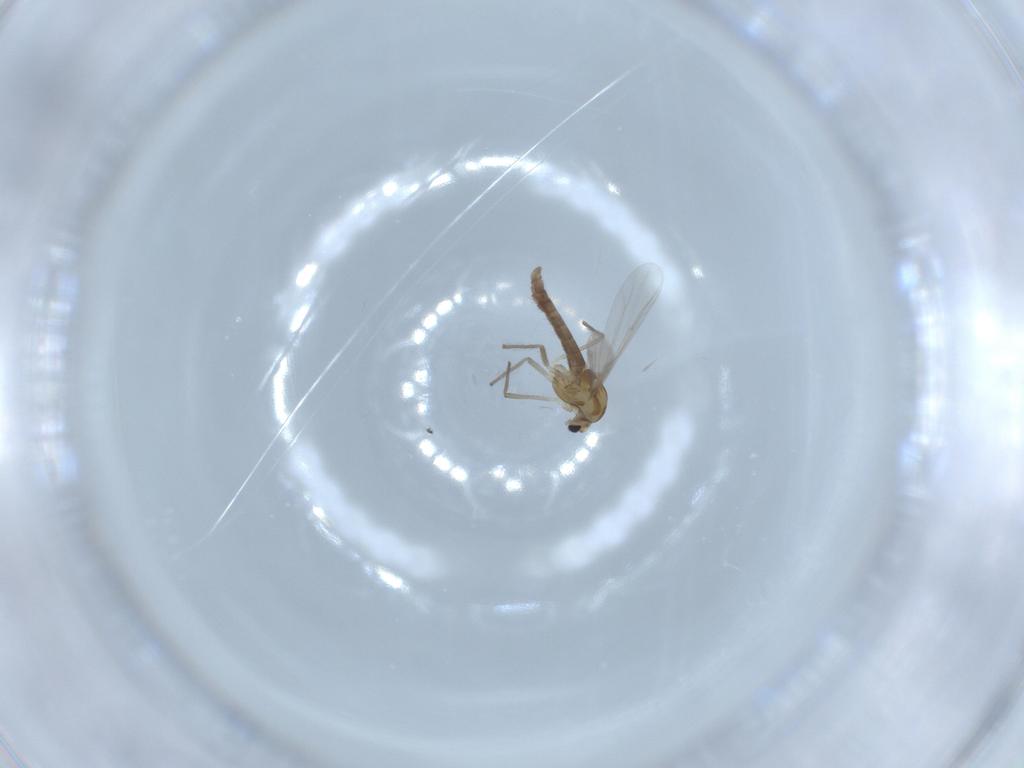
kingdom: Animalia
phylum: Arthropoda
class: Insecta
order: Diptera
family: Chironomidae
